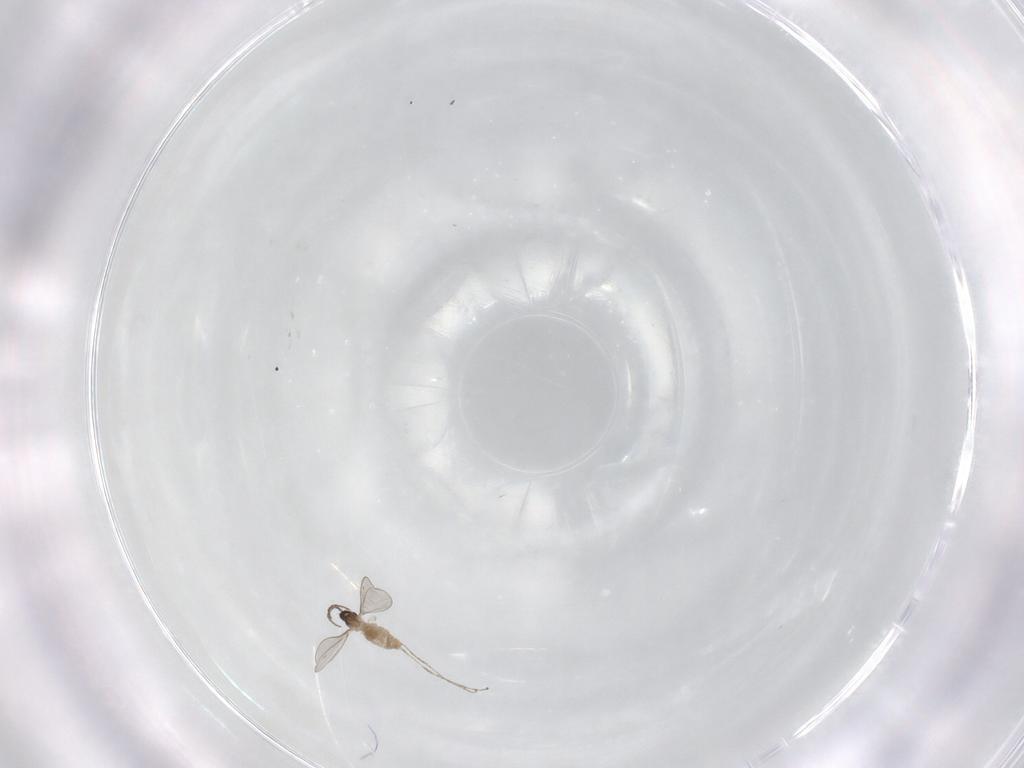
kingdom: Animalia
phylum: Arthropoda
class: Insecta
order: Diptera
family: Cecidomyiidae
